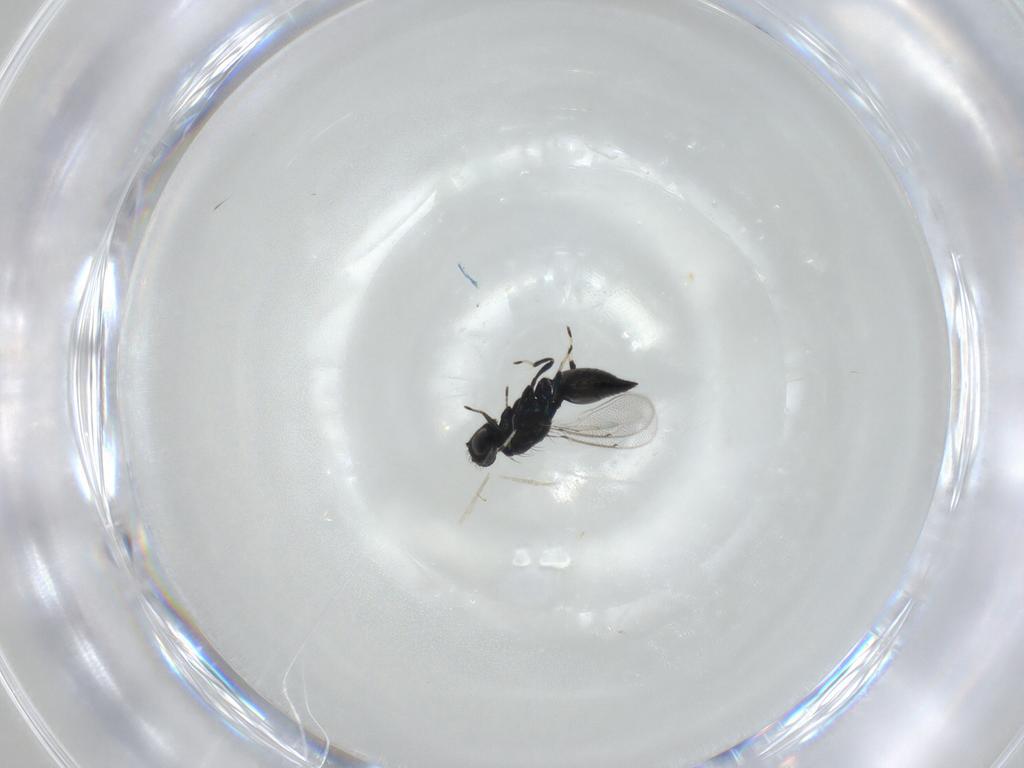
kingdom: Animalia
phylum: Arthropoda
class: Insecta
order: Hymenoptera
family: Eulophidae
